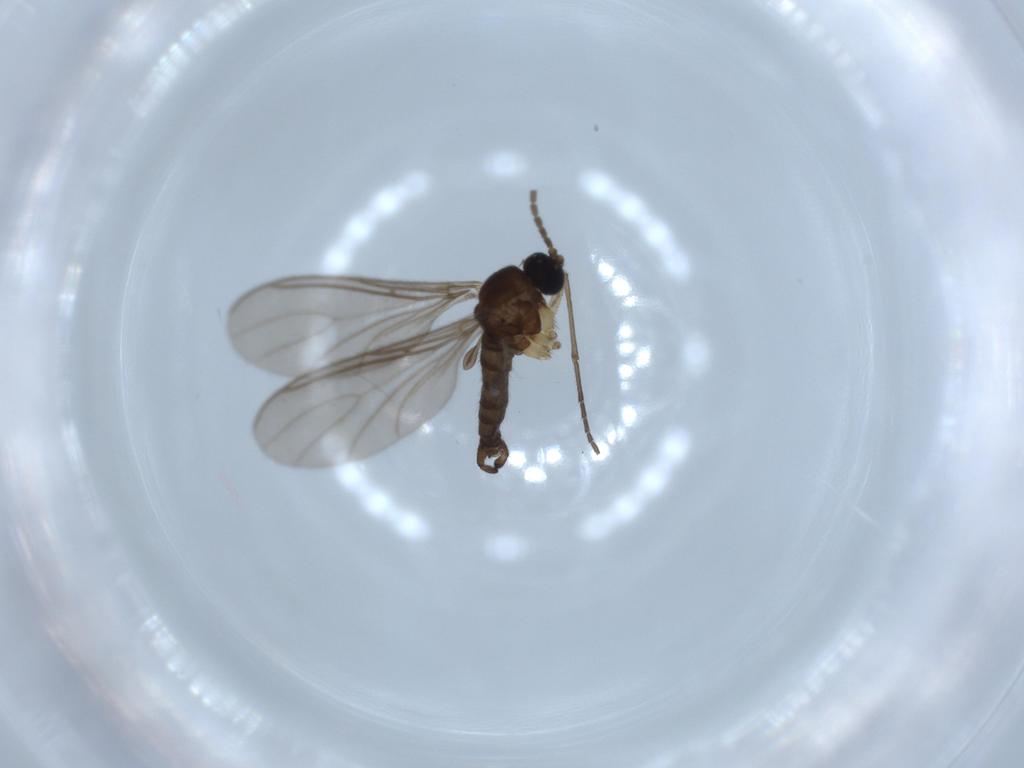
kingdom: Animalia
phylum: Arthropoda
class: Insecta
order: Diptera
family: Sciaridae
